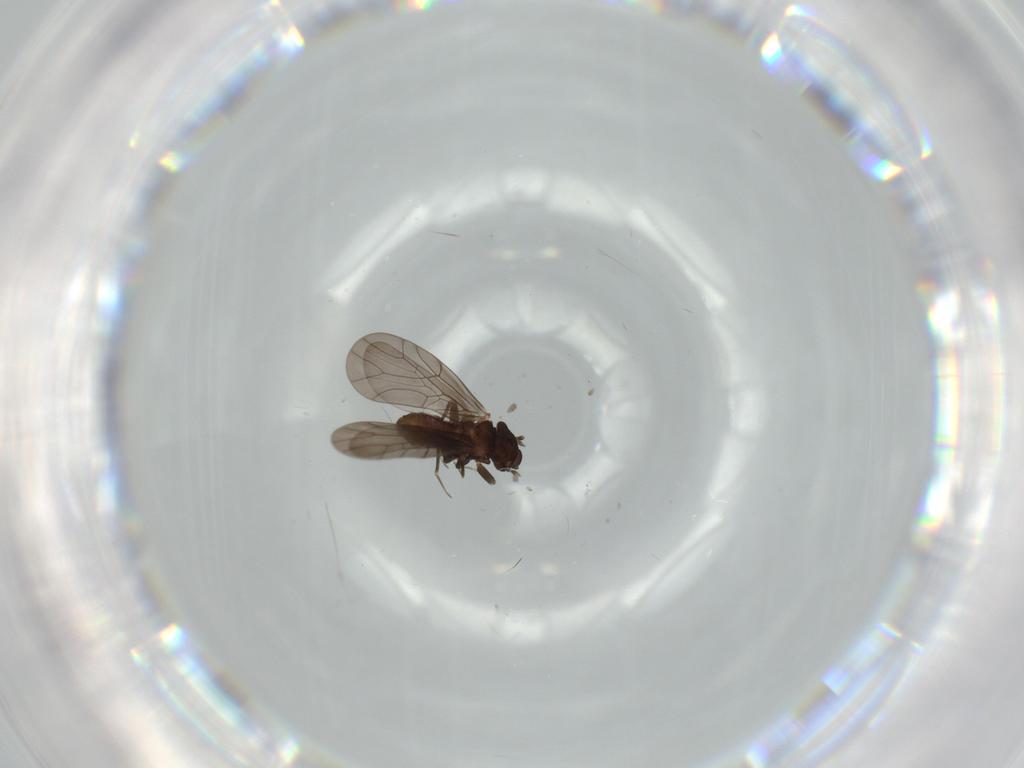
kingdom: Animalia
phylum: Arthropoda
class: Insecta
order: Psocodea
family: Lepidopsocidae
